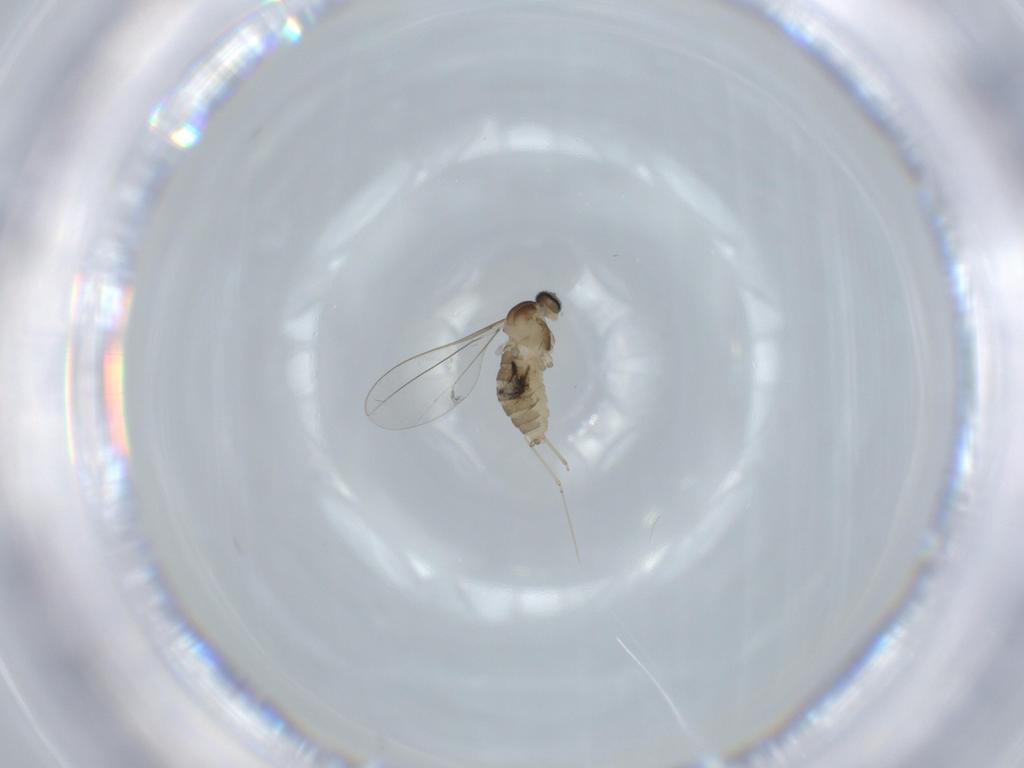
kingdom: Animalia
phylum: Arthropoda
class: Insecta
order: Diptera
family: Cecidomyiidae
